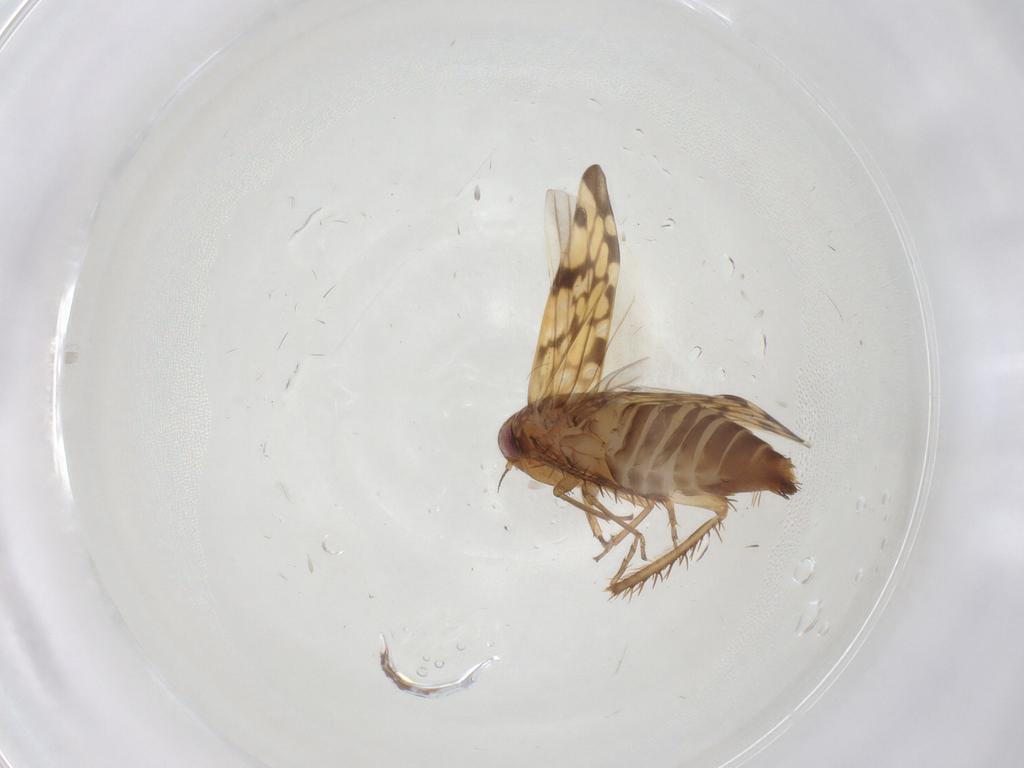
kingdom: Animalia
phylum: Arthropoda
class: Insecta
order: Hemiptera
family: Cicadellidae
